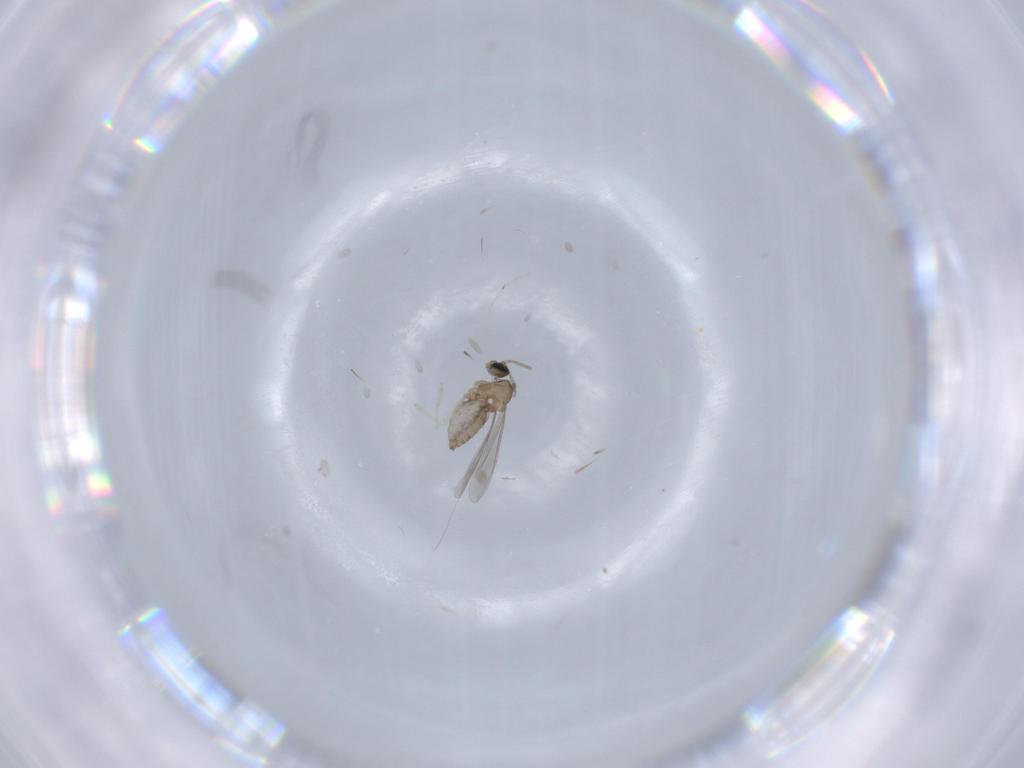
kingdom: Animalia
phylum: Arthropoda
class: Insecta
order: Diptera
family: Cecidomyiidae
